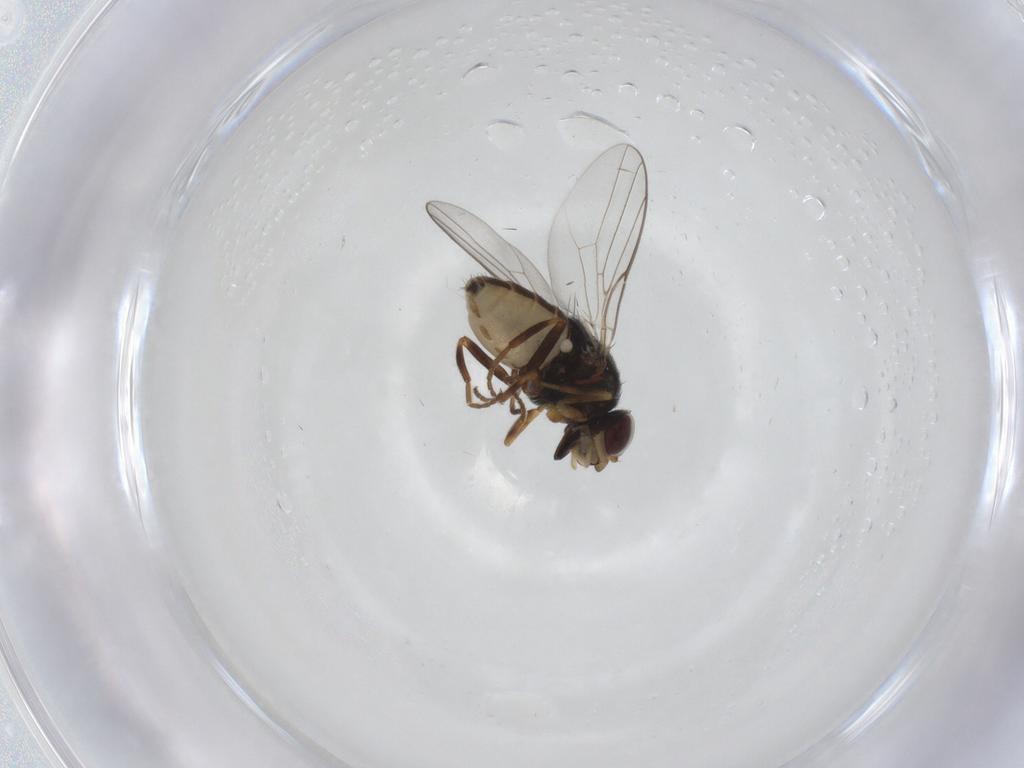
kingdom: Animalia
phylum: Arthropoda
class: Insecta
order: Diptera
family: Chloropidae
